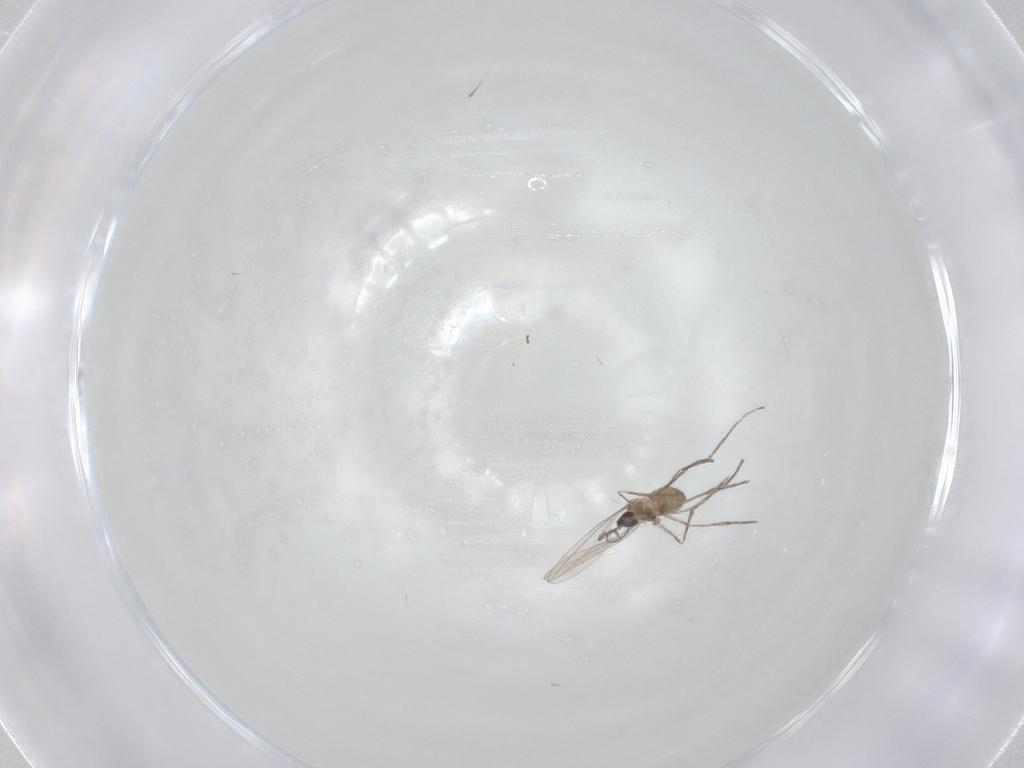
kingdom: Animalia
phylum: Arthropoda
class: Insecta
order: Diptera
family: Cecidomyiidae
